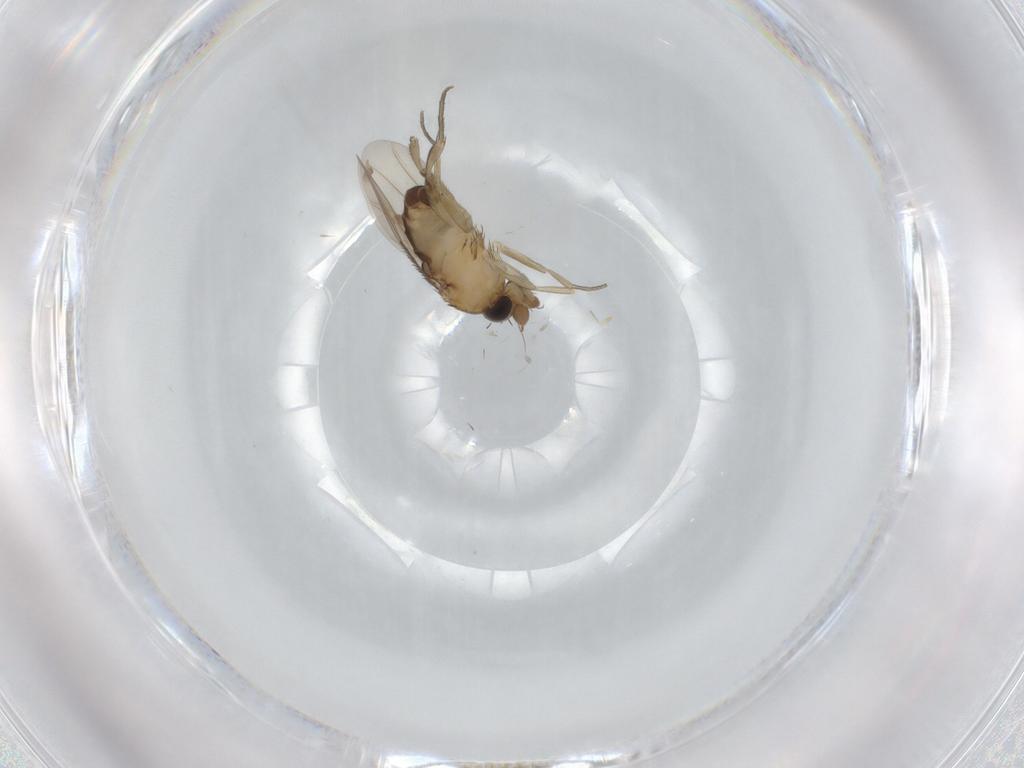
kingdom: Animalia
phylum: Arthropoda
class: Insecta
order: Diptera
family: Phoridae
